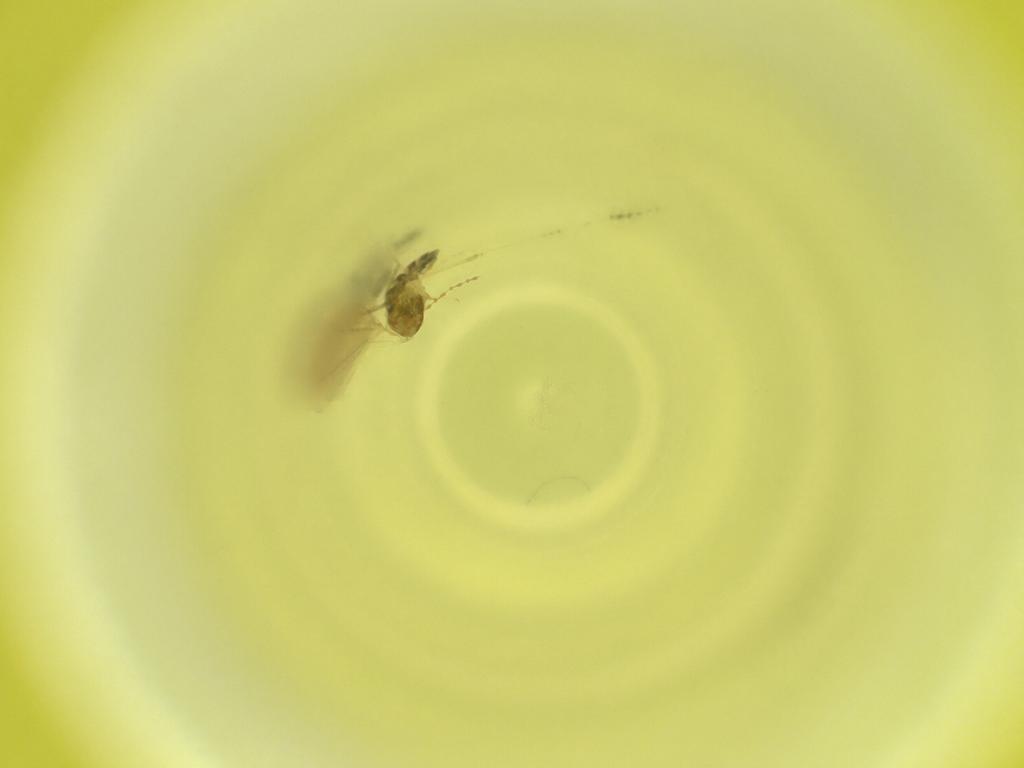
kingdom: Animalia
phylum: Arthropoda
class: Insecta
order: Diptera
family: Cecidomyiidae
